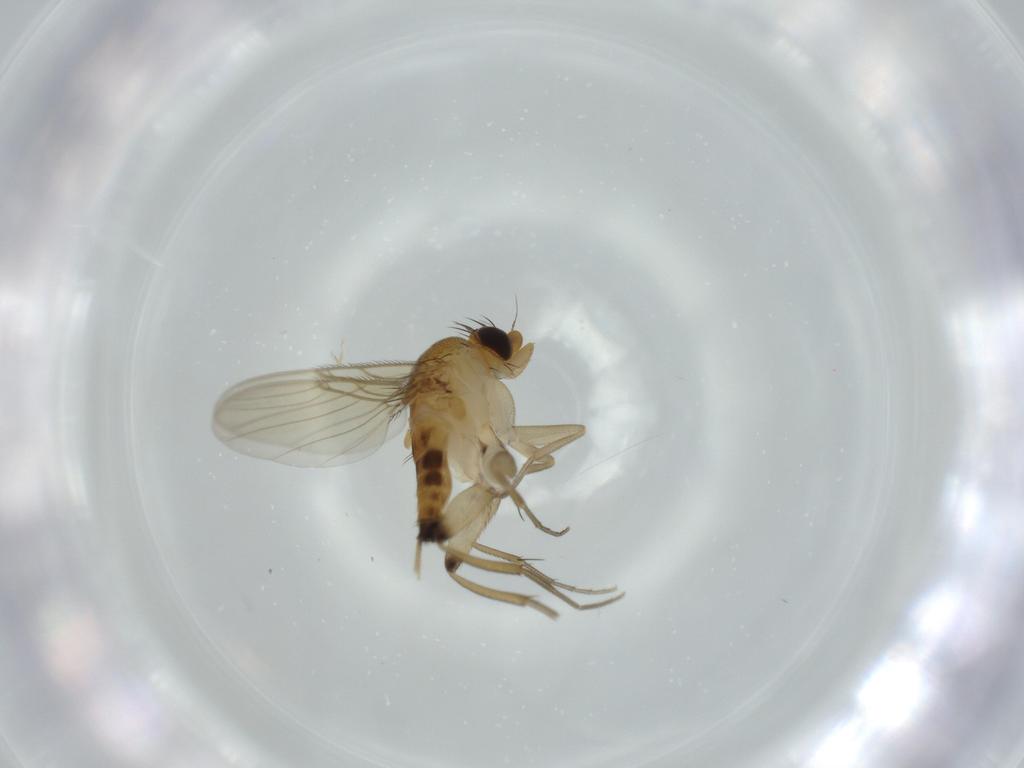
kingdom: Animalia
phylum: Arthropoda
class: Insecta
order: Diptera
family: Phoridae
